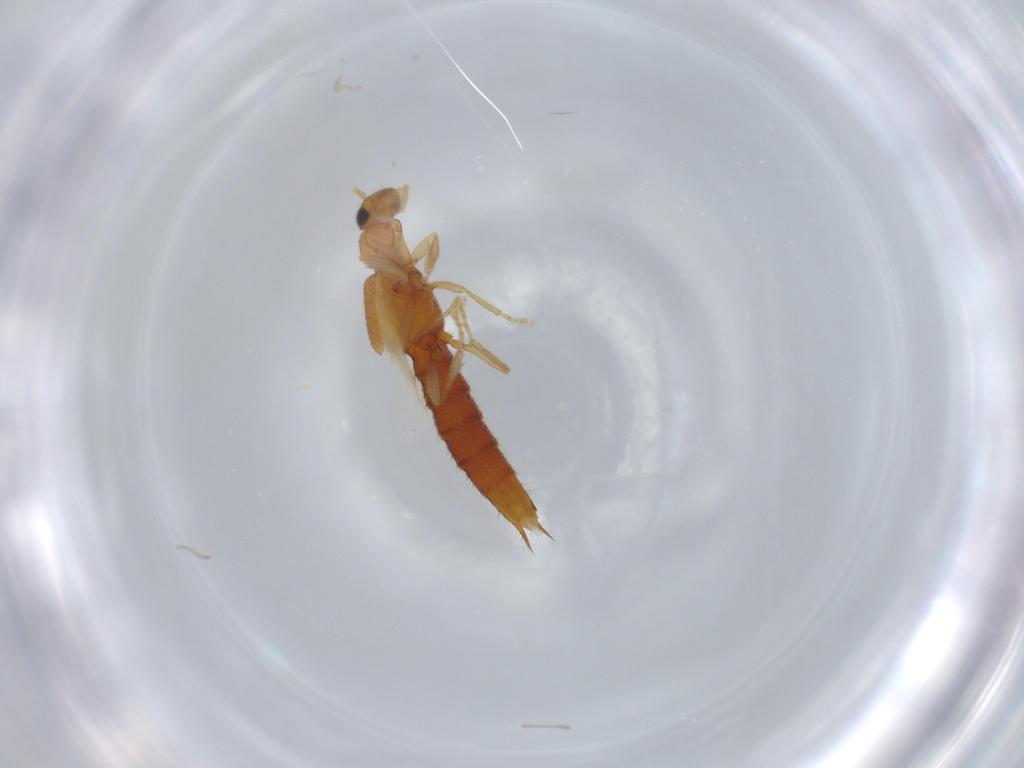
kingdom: Animalia
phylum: Arthropoda
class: Insecta
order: Coleoptera
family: Staphylinidae
